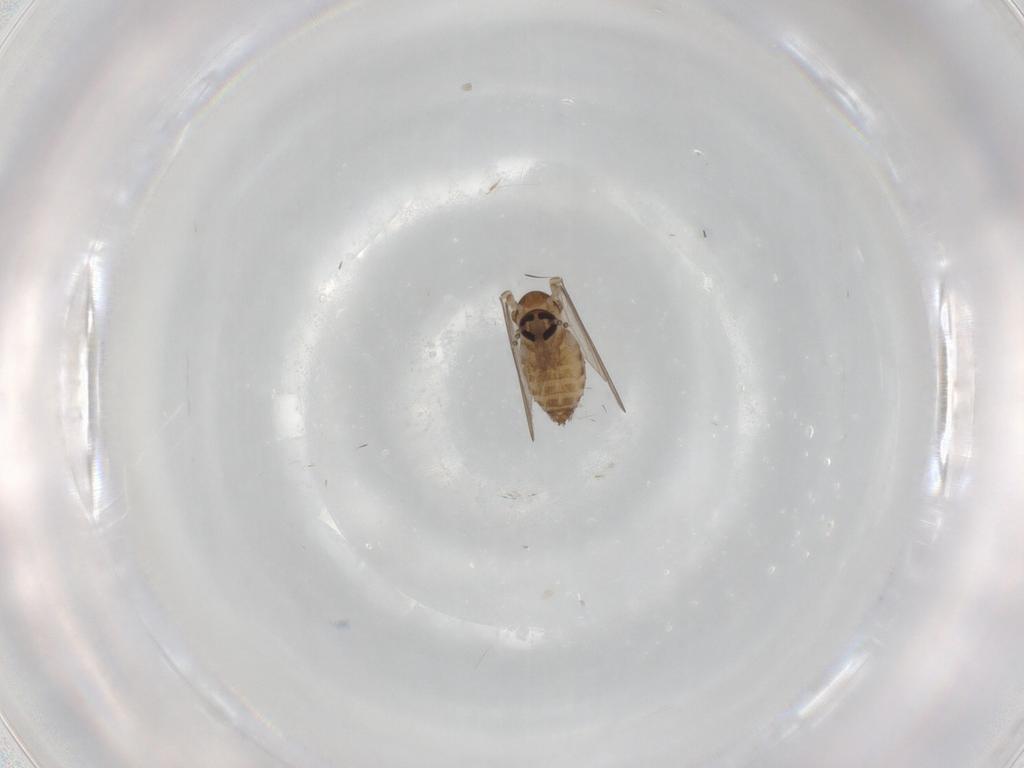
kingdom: Animalia
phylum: Arthropoda
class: Insecta
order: Diptera
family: Psychodidae
